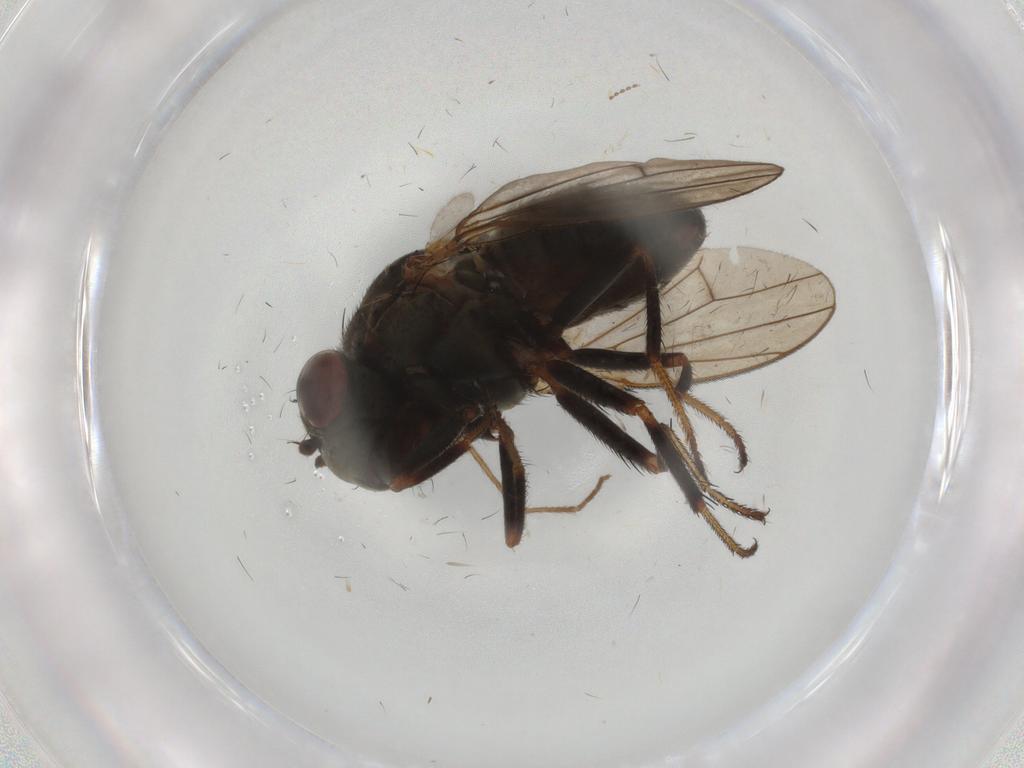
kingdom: Animalia
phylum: Arthropoda
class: Insecta
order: Diptera
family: Ephydridae
